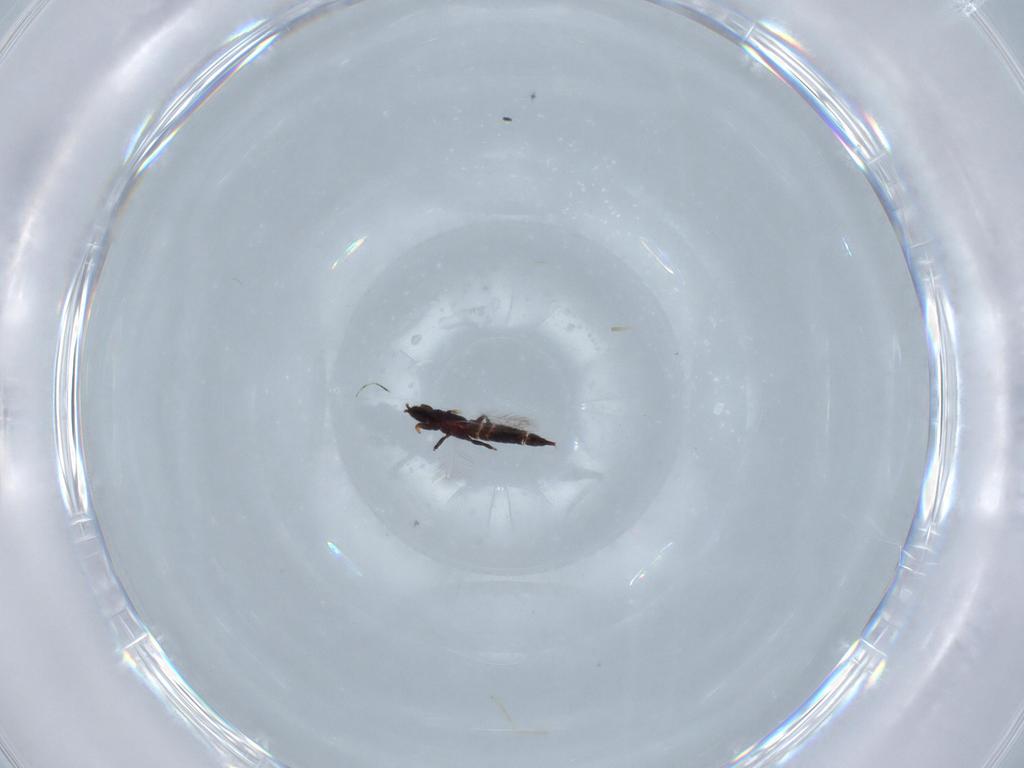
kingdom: Animalia
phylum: Arthropoda
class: Insecta
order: Thysanoptera
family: Phlaeothripidae
